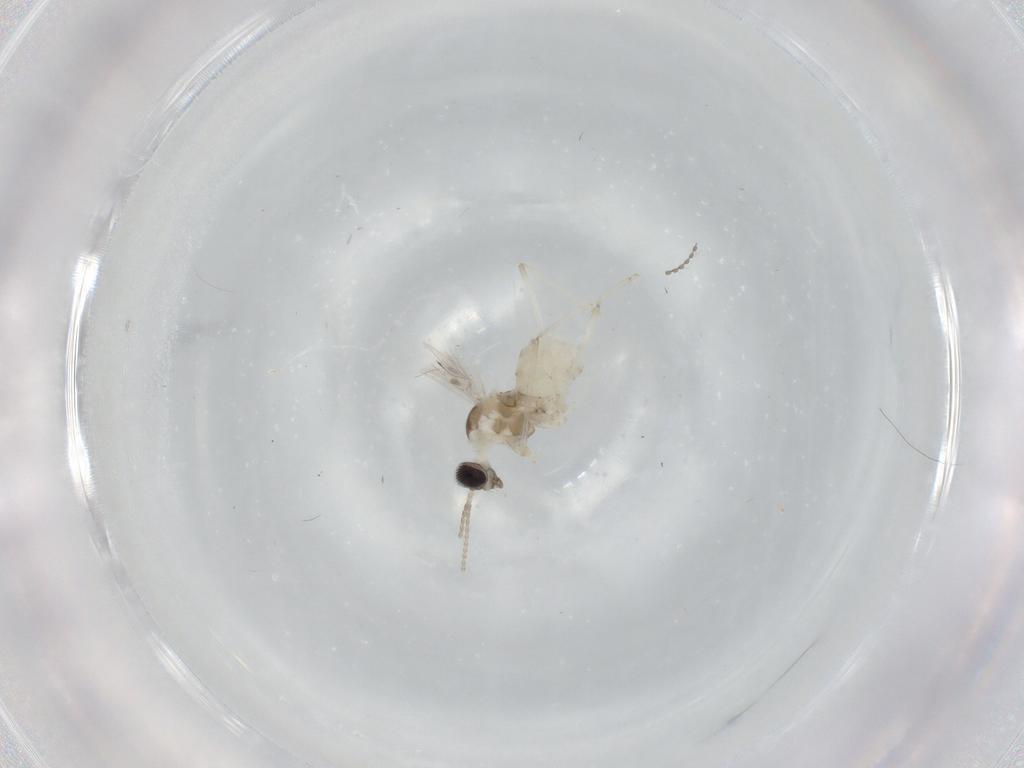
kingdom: Animalia
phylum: Arthropoda
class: Insecta
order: Diptera
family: Cecidomyiidae
